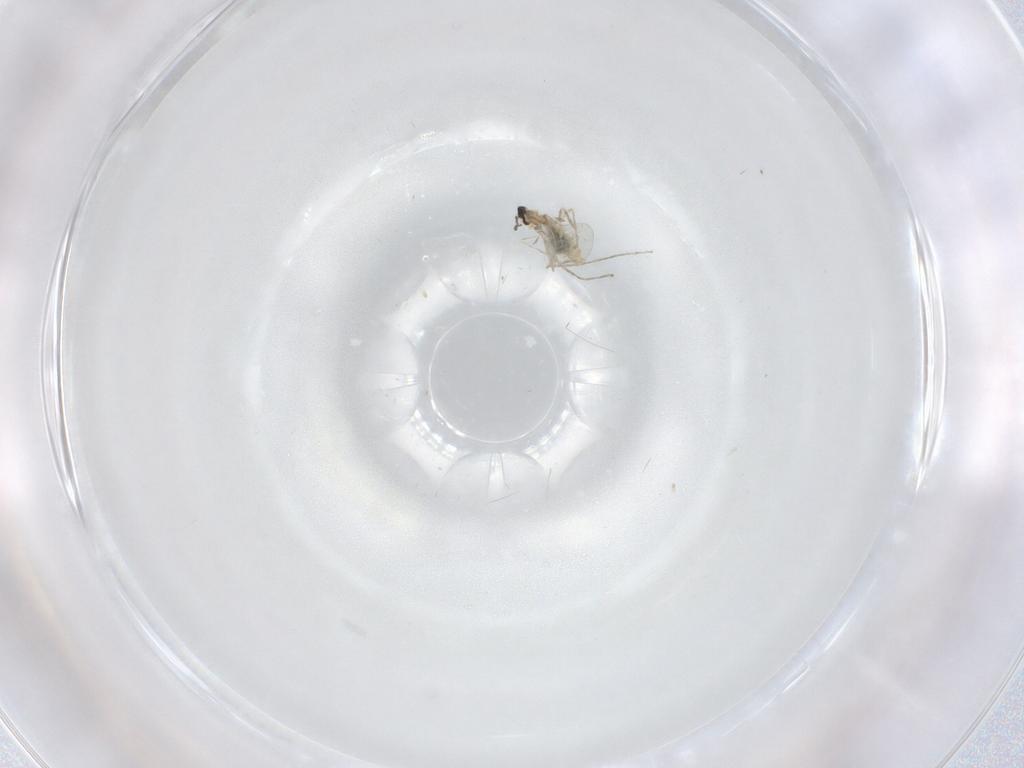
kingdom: Animalia
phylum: Arthropoda
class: Insecta
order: Diptera
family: Cecidomyiidae
